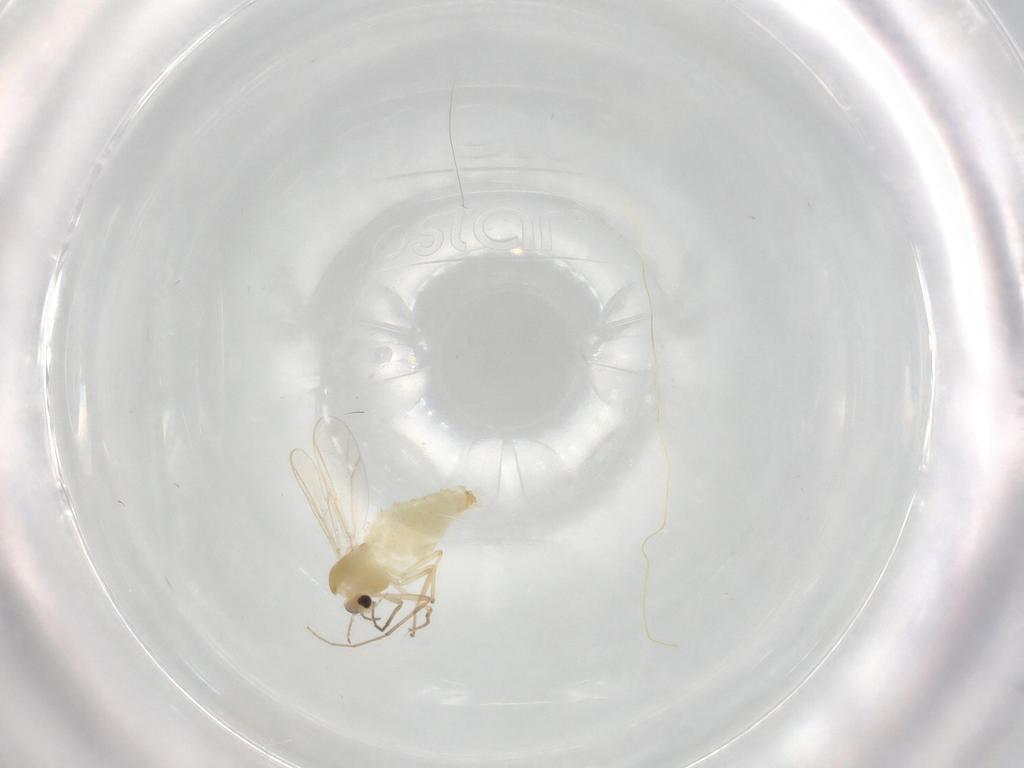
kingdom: Animalia
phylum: Arthropoda
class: Insecta
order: Diptera
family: Chironomidae
